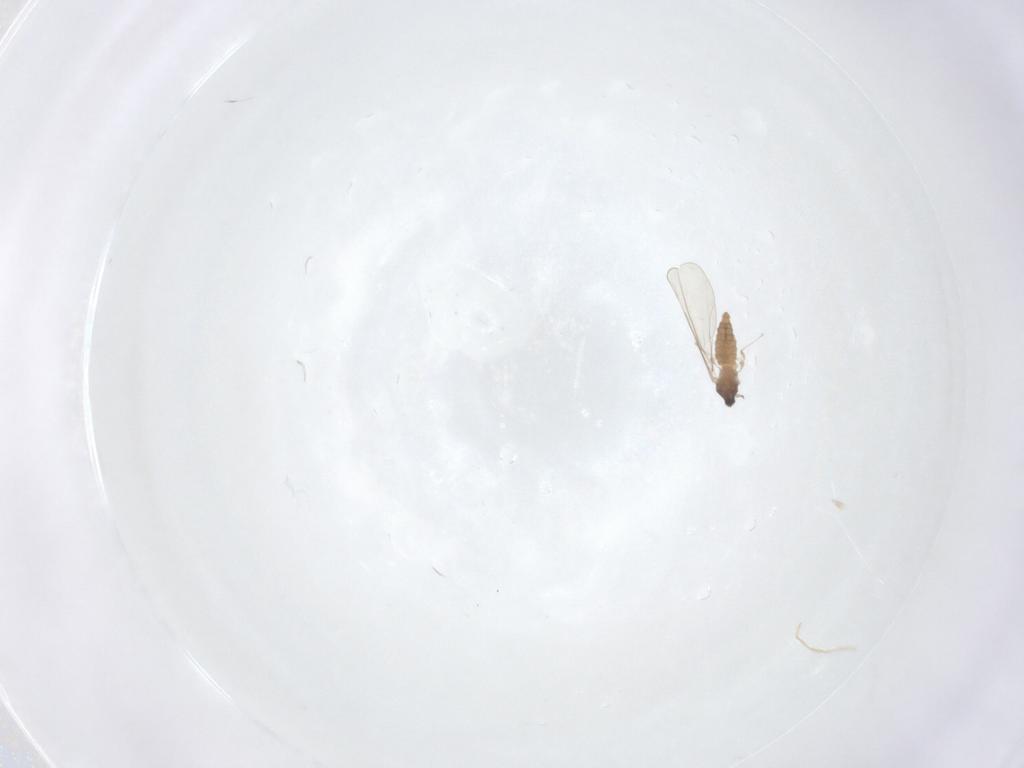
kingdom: Animalia
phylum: Arthropoda
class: Insecta
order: Diptera
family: Cecidomyiidae
